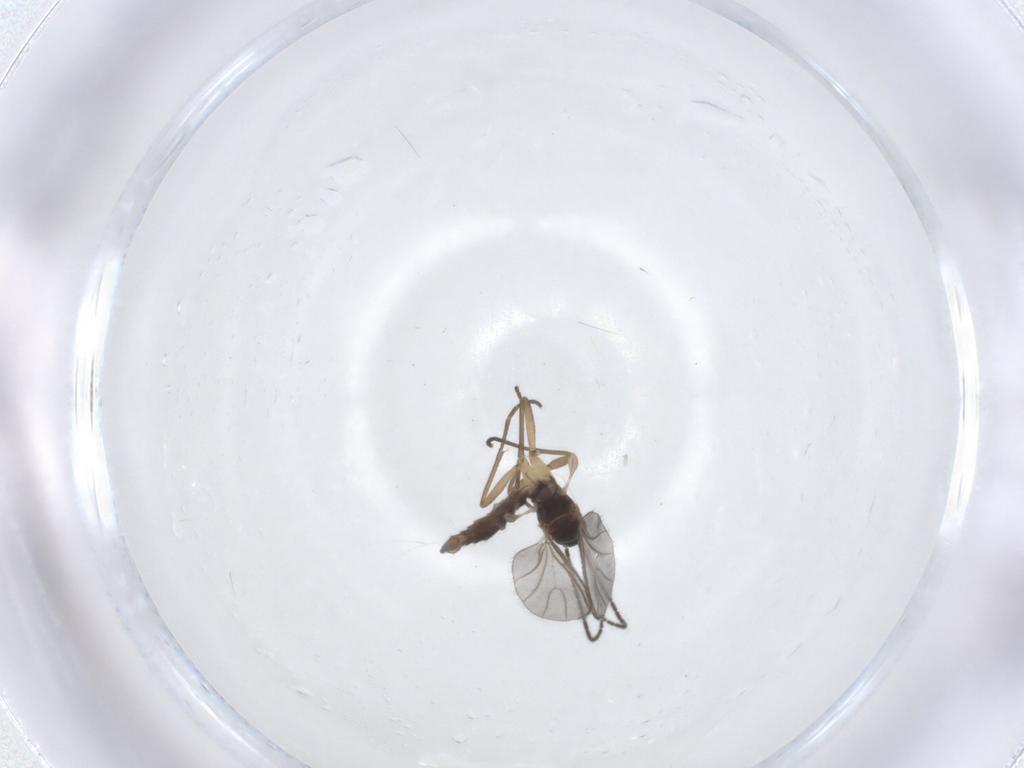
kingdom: Animalia
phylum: Arthropoda
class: Insecta
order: Diptera
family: Sciaridae
